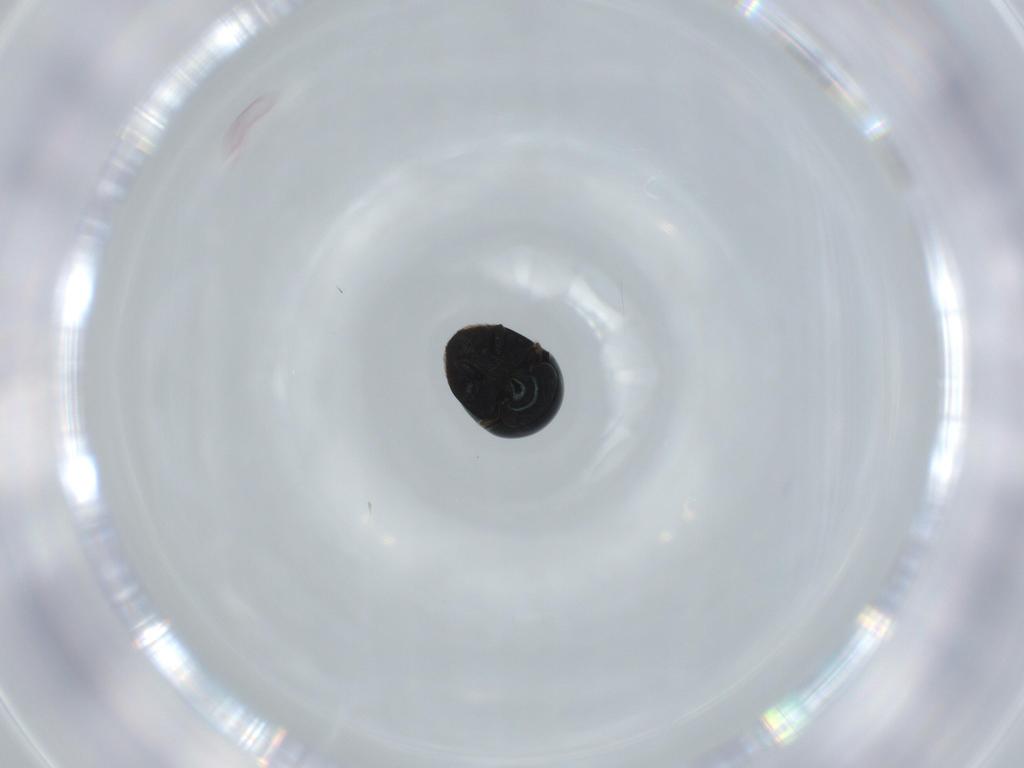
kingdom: Animalia
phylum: Arthropoda
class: Insecta
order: Coleoptera
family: Cybocephalidae
